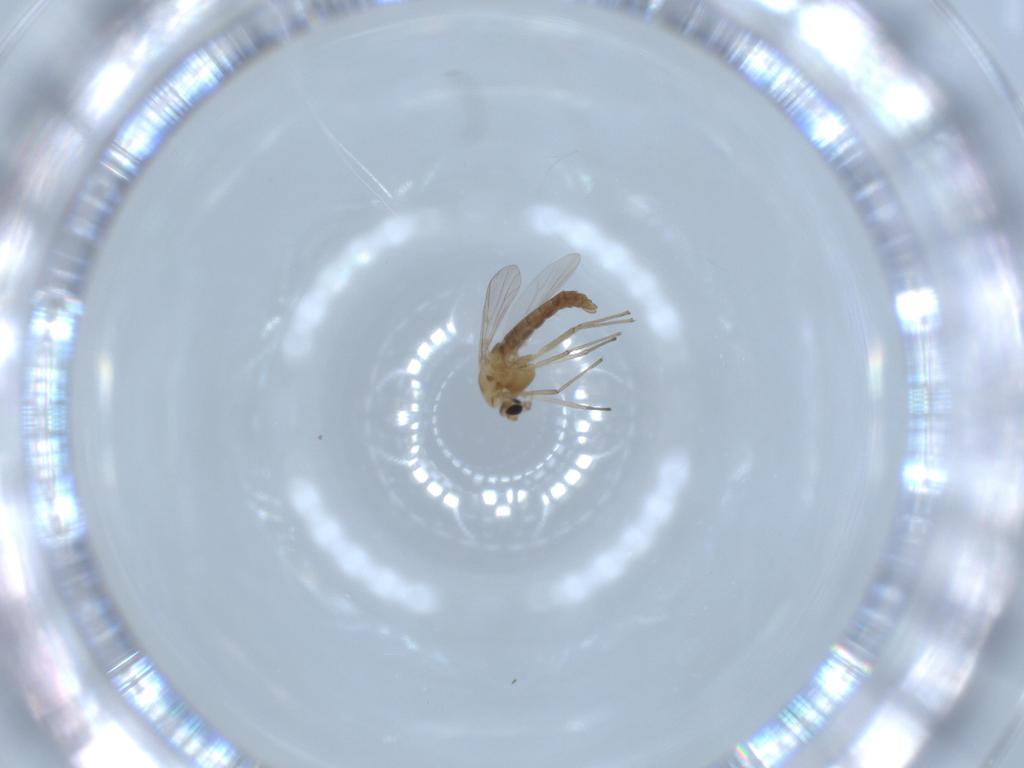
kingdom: Animalia
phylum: Arthropoda
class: Insecta
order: Diptera
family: Chironomidae
